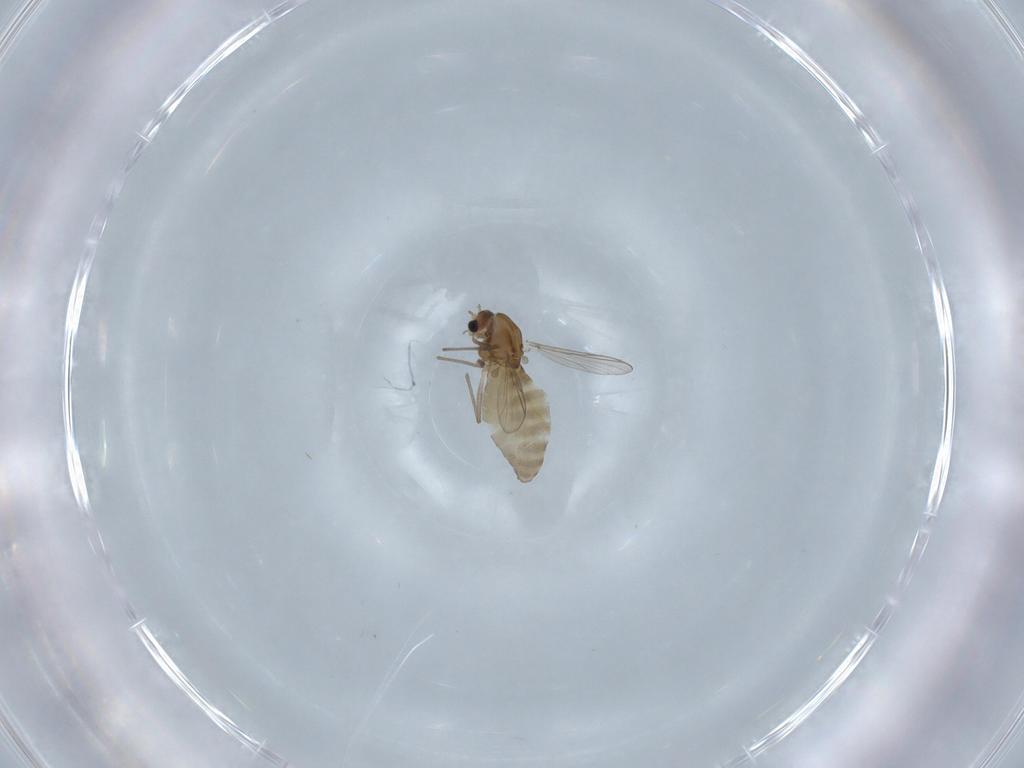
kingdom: Animalia
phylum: Arthropoda
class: Insecta
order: Diptera
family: Chironomidae
